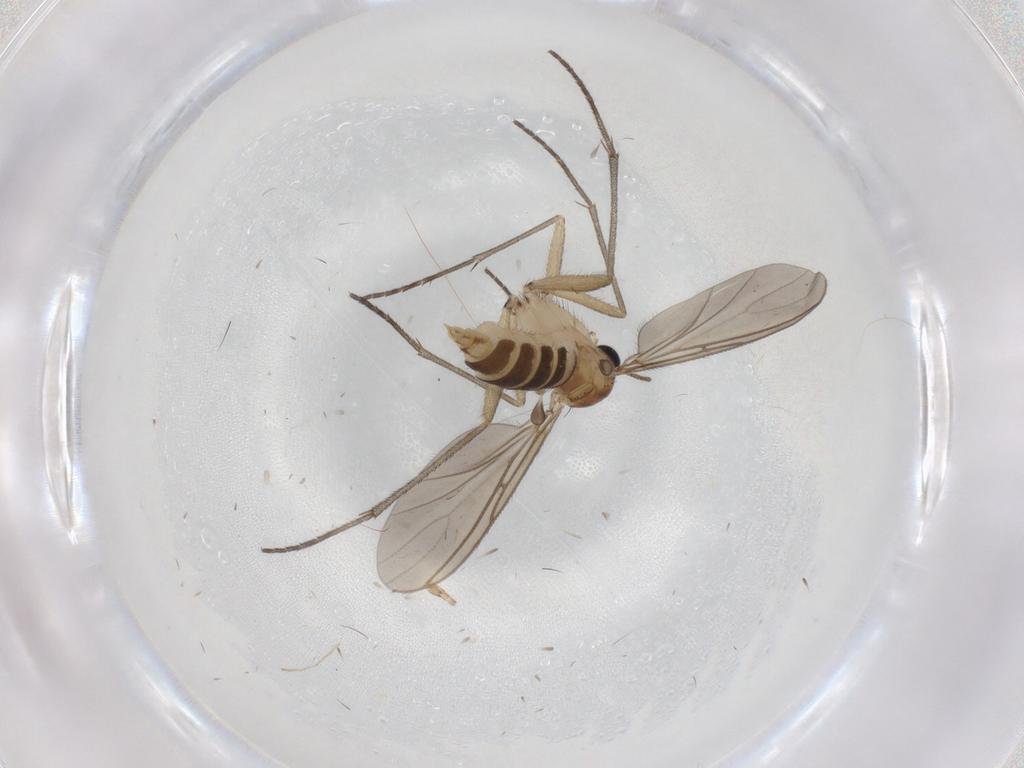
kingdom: Animalia
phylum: Arthropoda
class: Insecta
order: Diptera
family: Sciaridae
